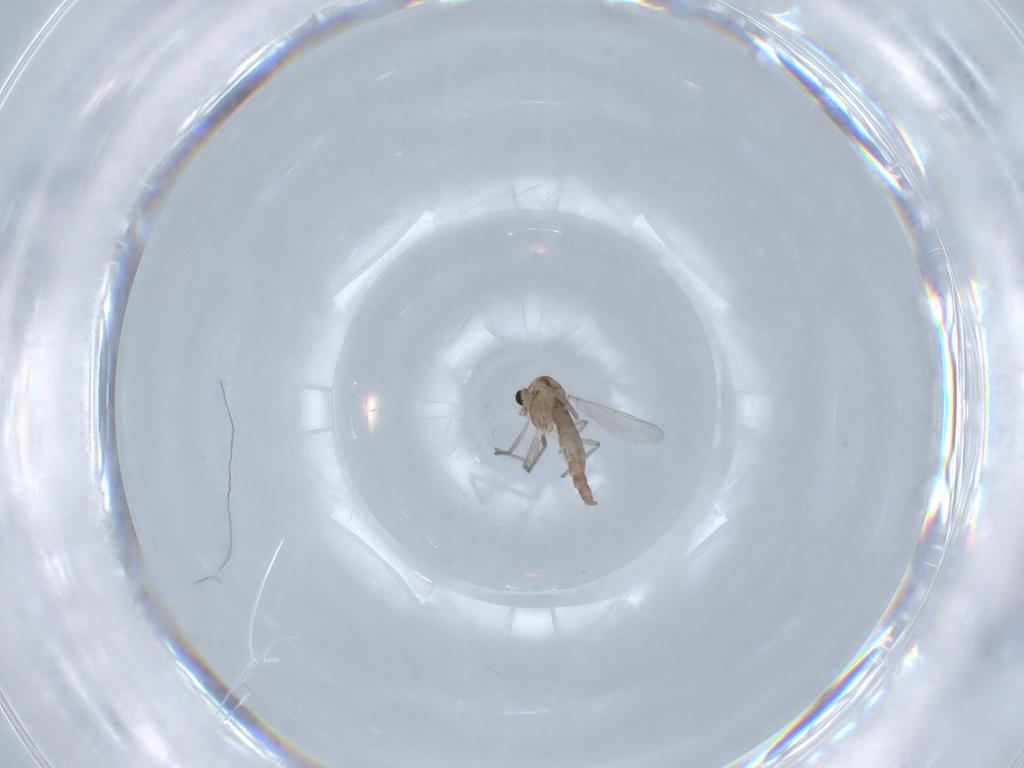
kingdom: Animalia
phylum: Arthropoda
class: Insecta
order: Diptera
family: Chironomidae
